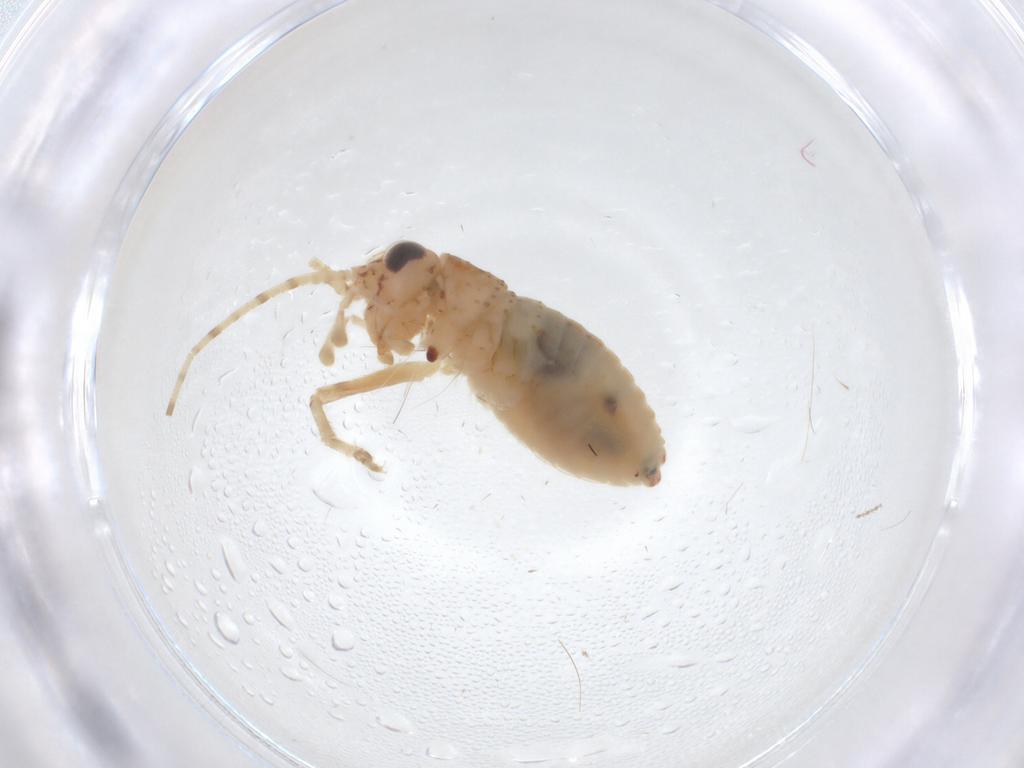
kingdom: Animalia
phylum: Arthropoda
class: Insecta
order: Orthoptera
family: Trigonidiidae
